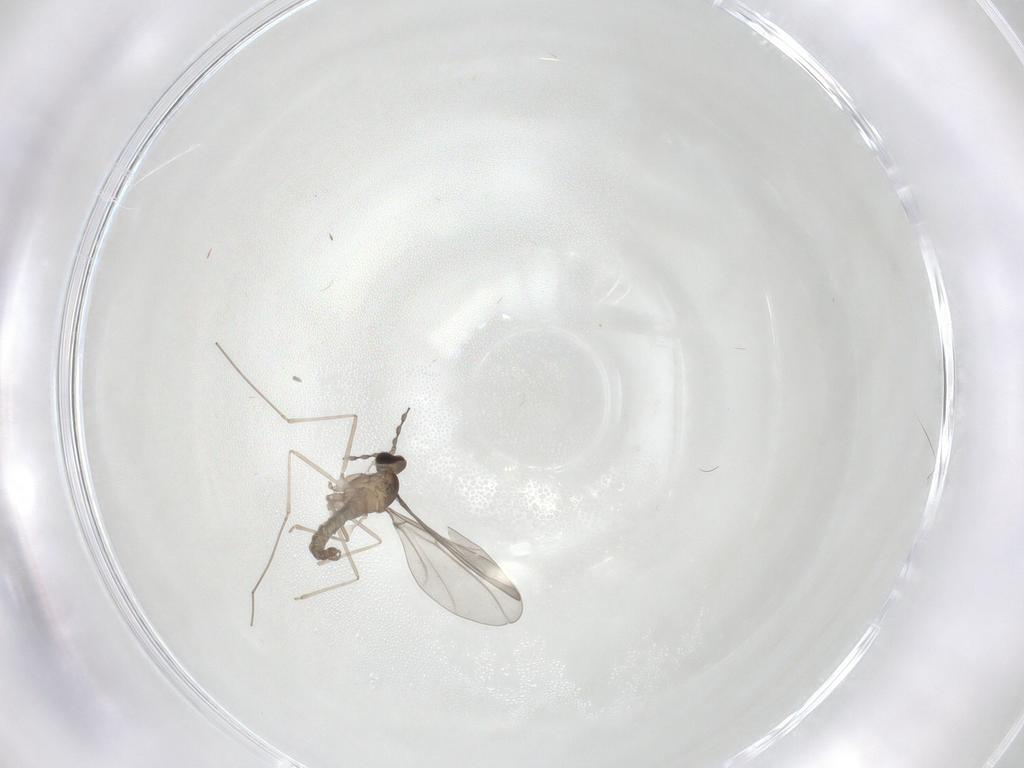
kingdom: Animalia
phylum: Arthropoda
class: Insecta
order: Diptera
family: Cecidomyiidae
